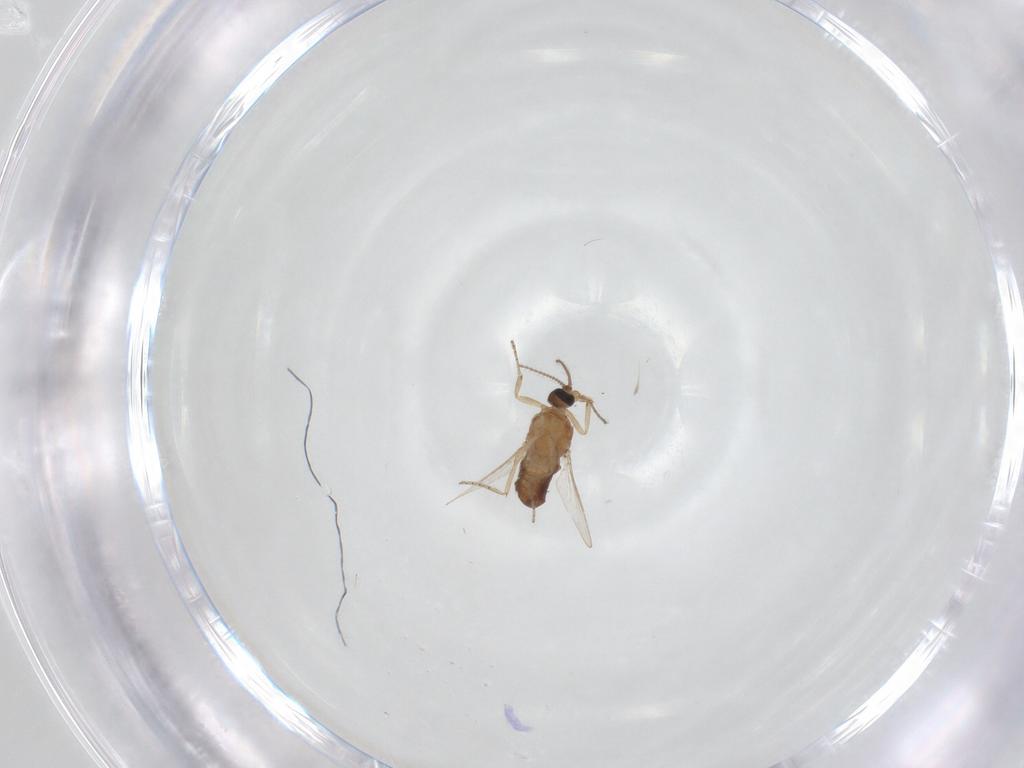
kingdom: Animalia
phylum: Arthropoda
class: Insecta
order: Diptera
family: Ceratopogonidae
